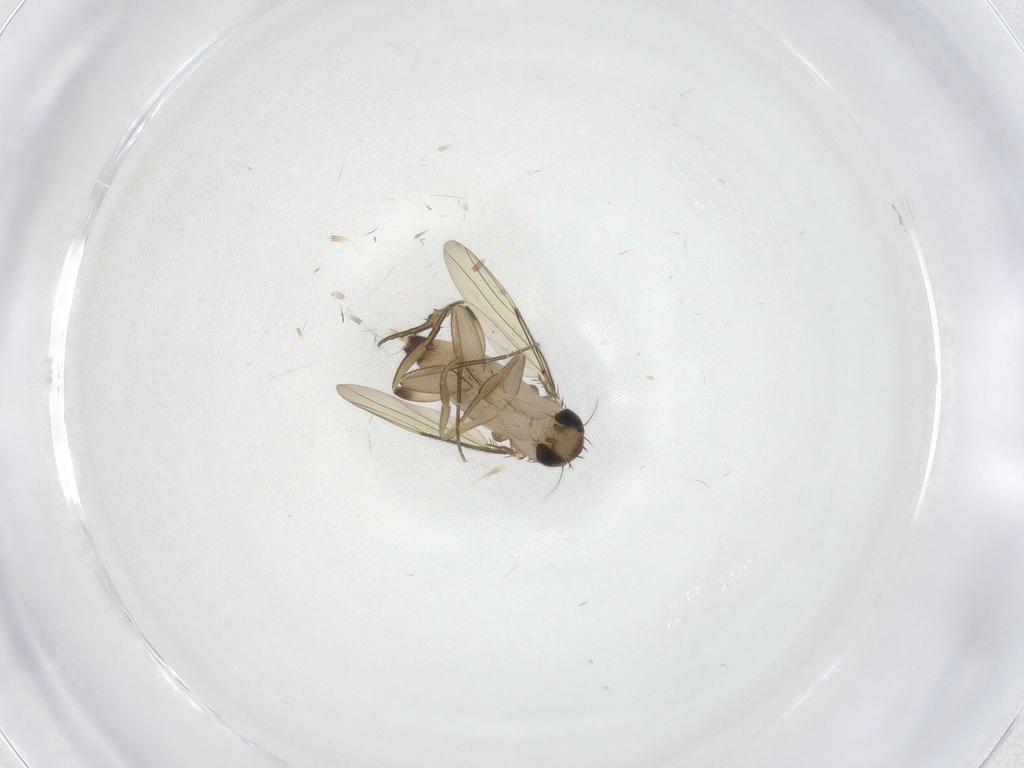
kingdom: Animalia
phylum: Arthropoda
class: Insecta
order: Diptera
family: Phoridae
